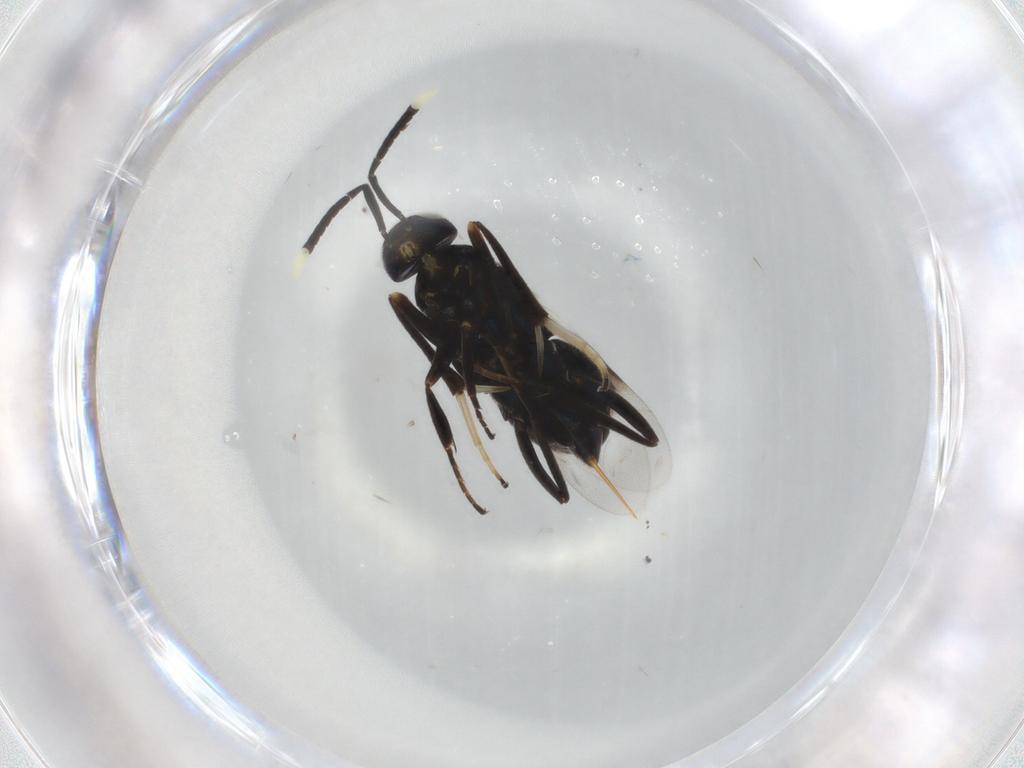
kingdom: Animalia
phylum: Arthropoda
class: Insecta
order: Hymenoptera
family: Encyrtidae
